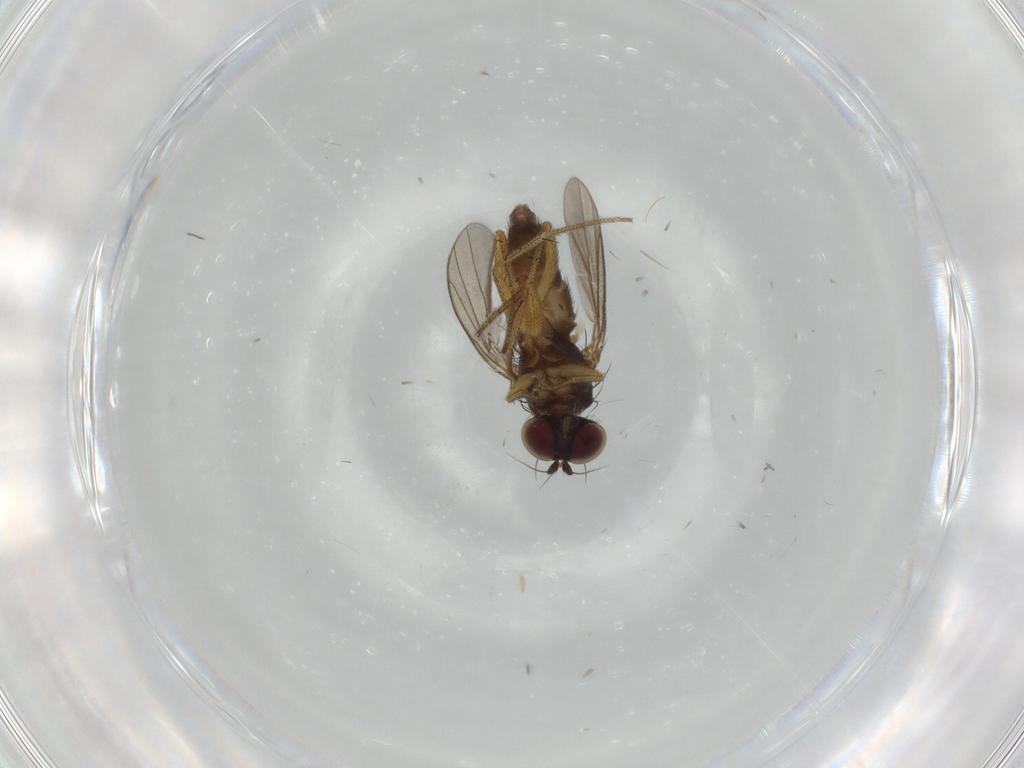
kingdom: Animalia
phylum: Arthropoda
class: Insecta
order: Diptera
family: Dolichopodidae
